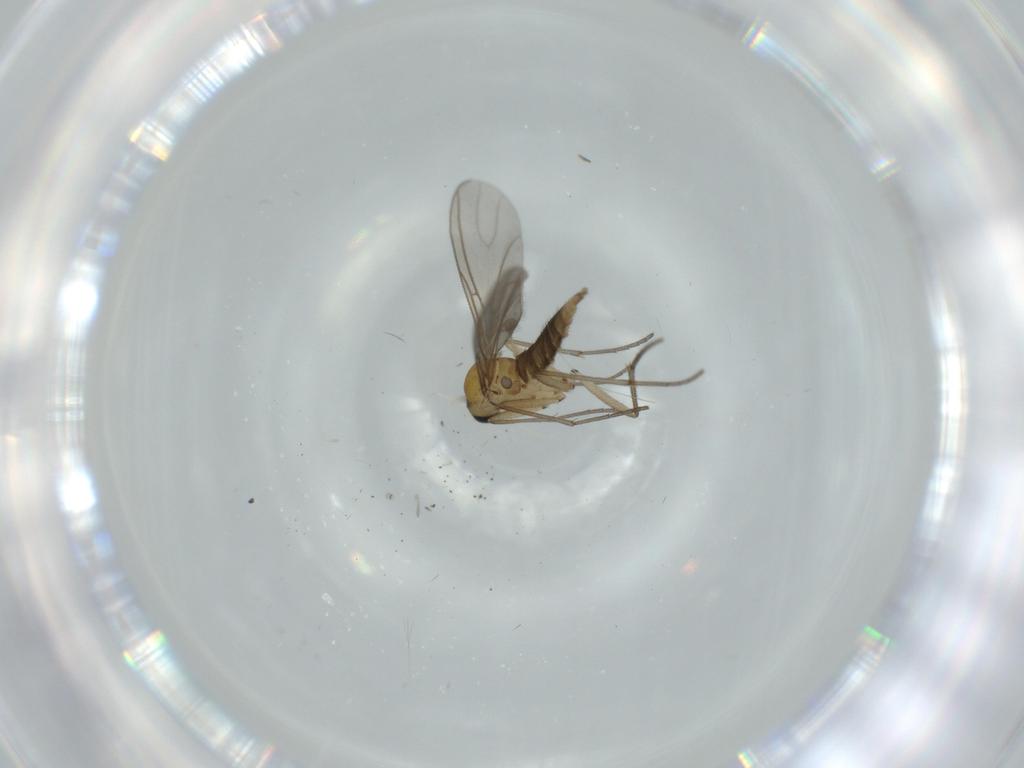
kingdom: Animalia
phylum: Arthropoda
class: Insecta
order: Diptera
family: Sciaridae
